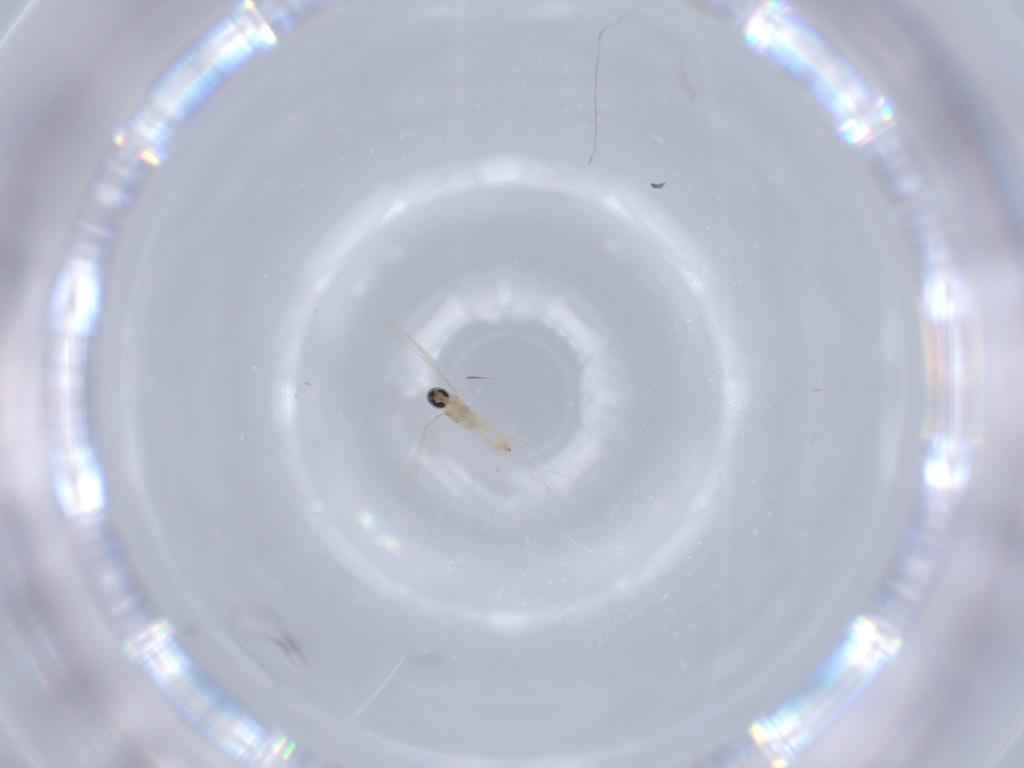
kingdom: Animalia
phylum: Arthropoda
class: Insecta
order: Diptera
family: Cecidomyiidae
